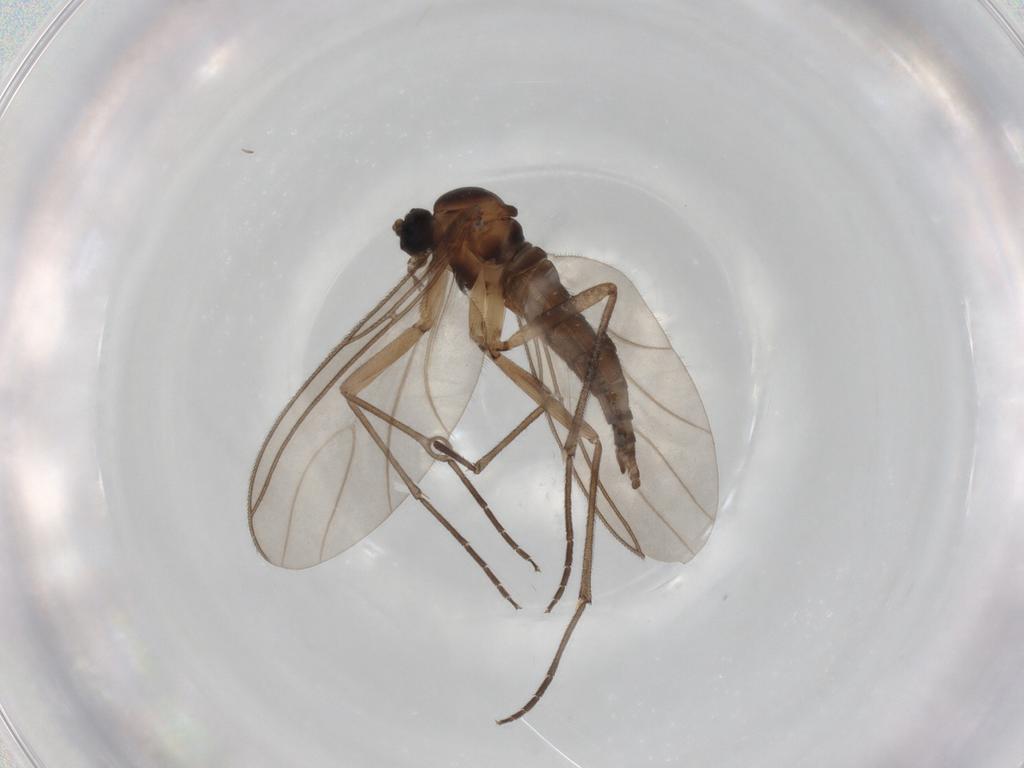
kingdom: Animalia
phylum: Arthropoda
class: Insecta
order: Diptera
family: Sciaridae
